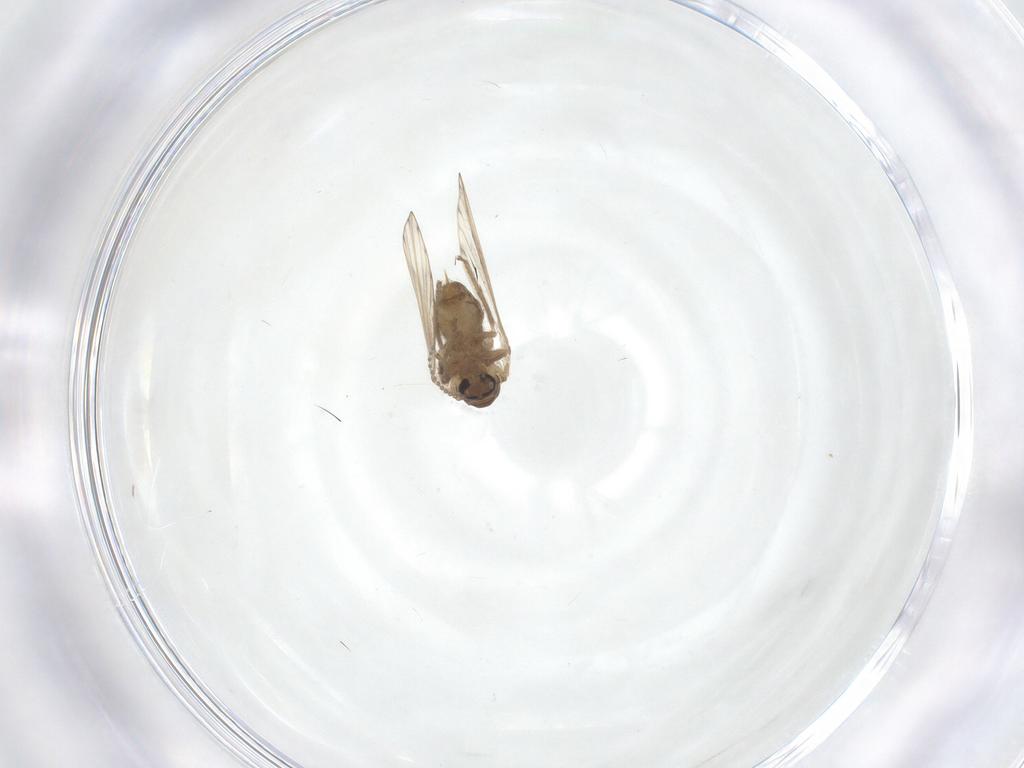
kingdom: Animalia
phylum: Arthropoda
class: Insecta
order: Diptera
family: Psychodidae
